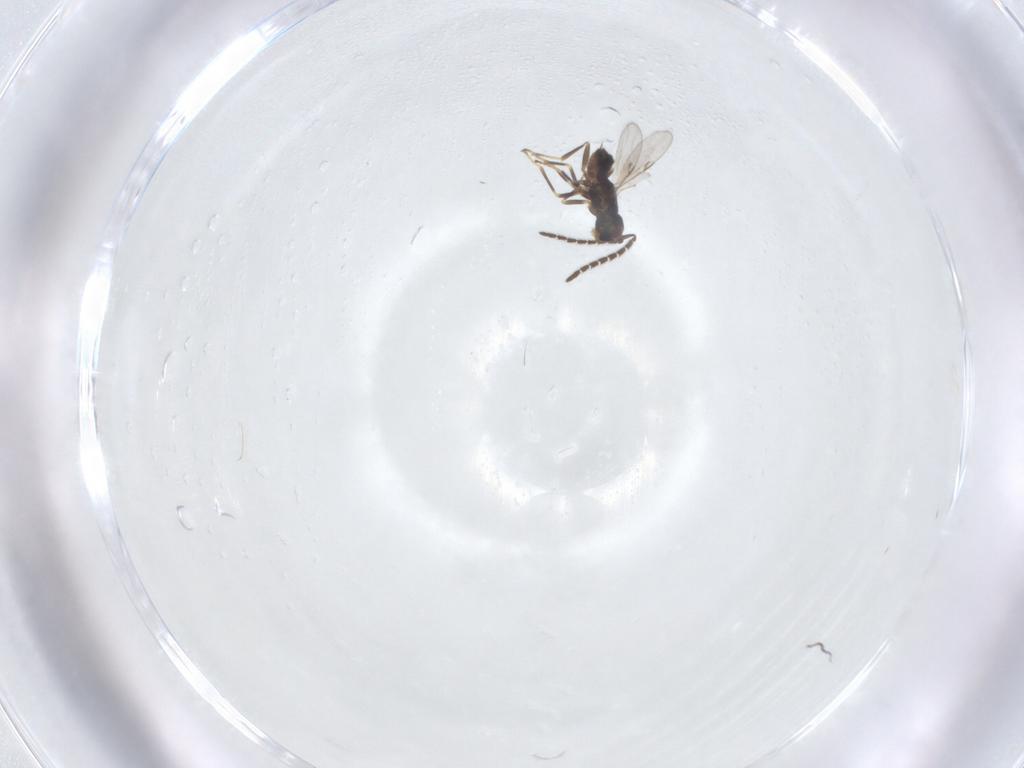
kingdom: Animalia
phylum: Arthropoda
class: Insecta
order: Hymenoptera
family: Encyrtidae
